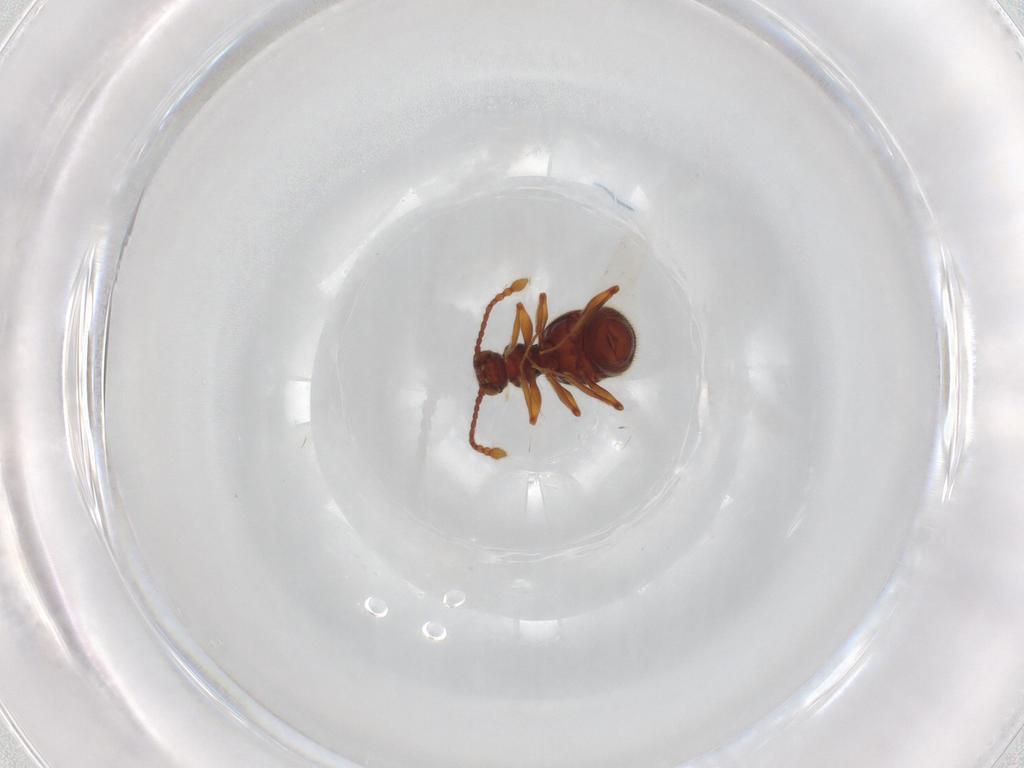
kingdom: Animalia
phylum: Arthropoda
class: Insecta
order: Coleoptera
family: Staphylinidae
